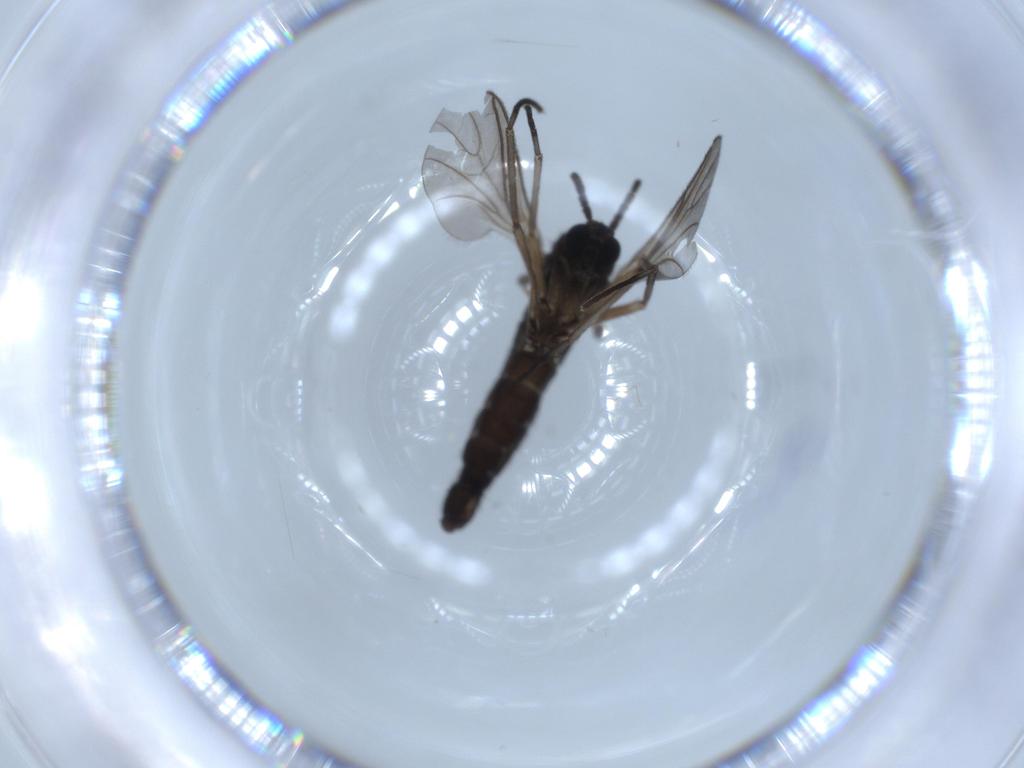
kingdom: Animalia
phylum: Arthropoda
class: Insecta
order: Diptera
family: Sciaridae
